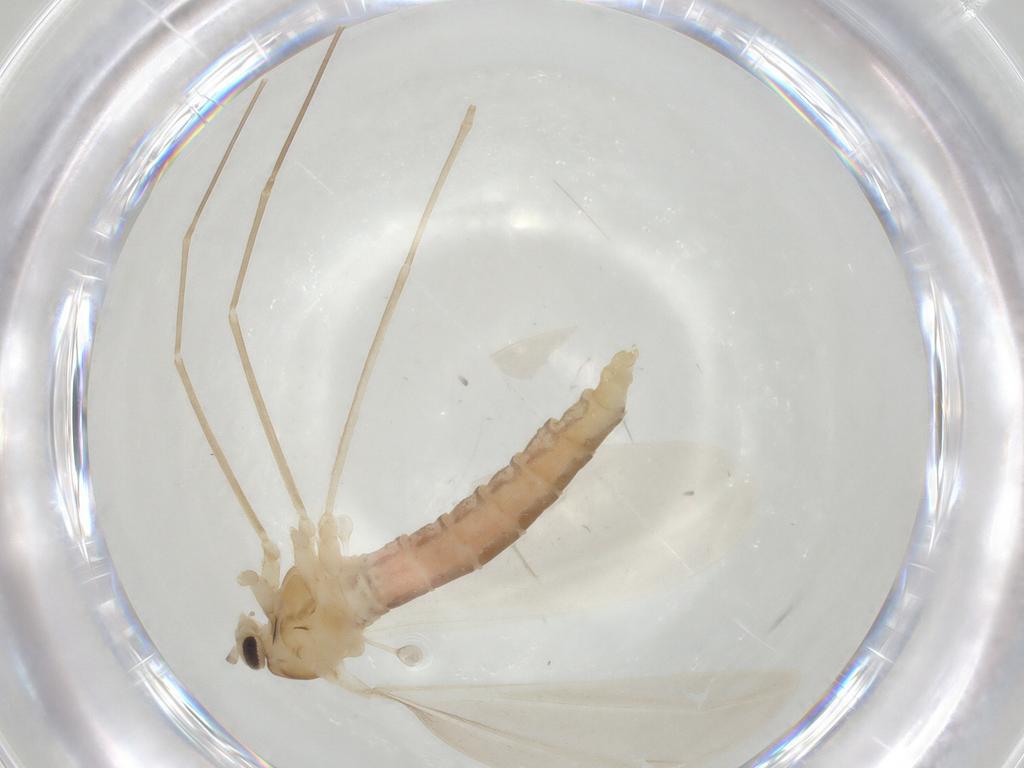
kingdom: Animalia
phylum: Arthropoda
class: Insecta
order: Diptera
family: Cecidomyiidae
